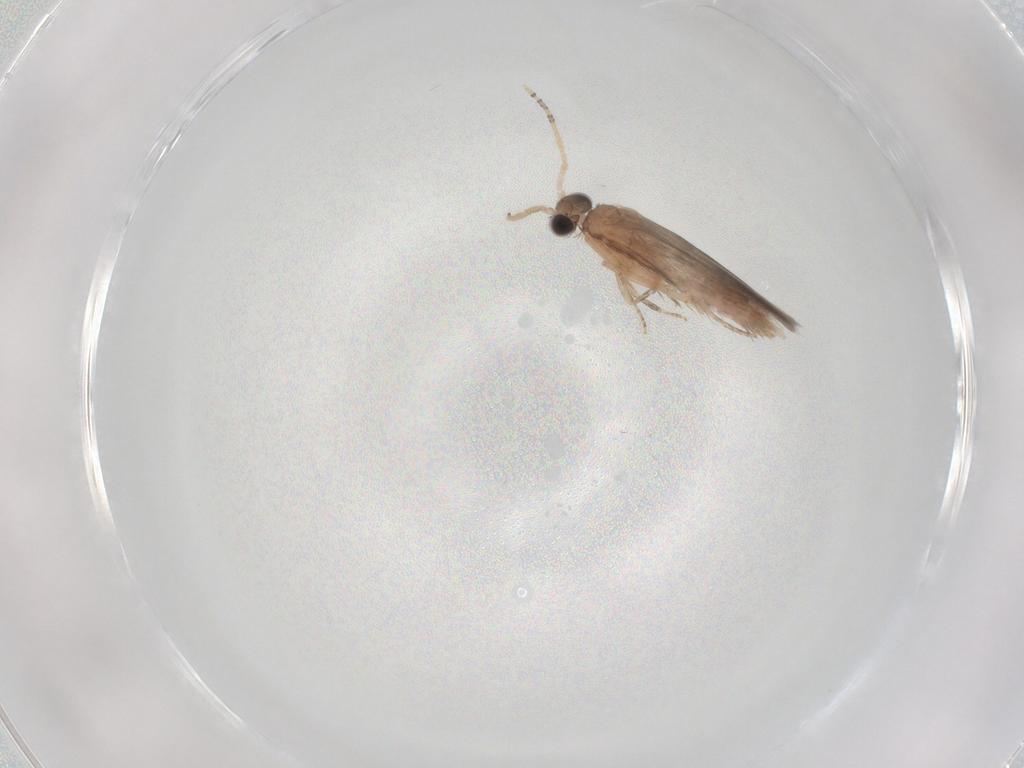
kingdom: Animalia
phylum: Arthropoda
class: Insecta
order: Trichoptera
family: Hydroptilidae
